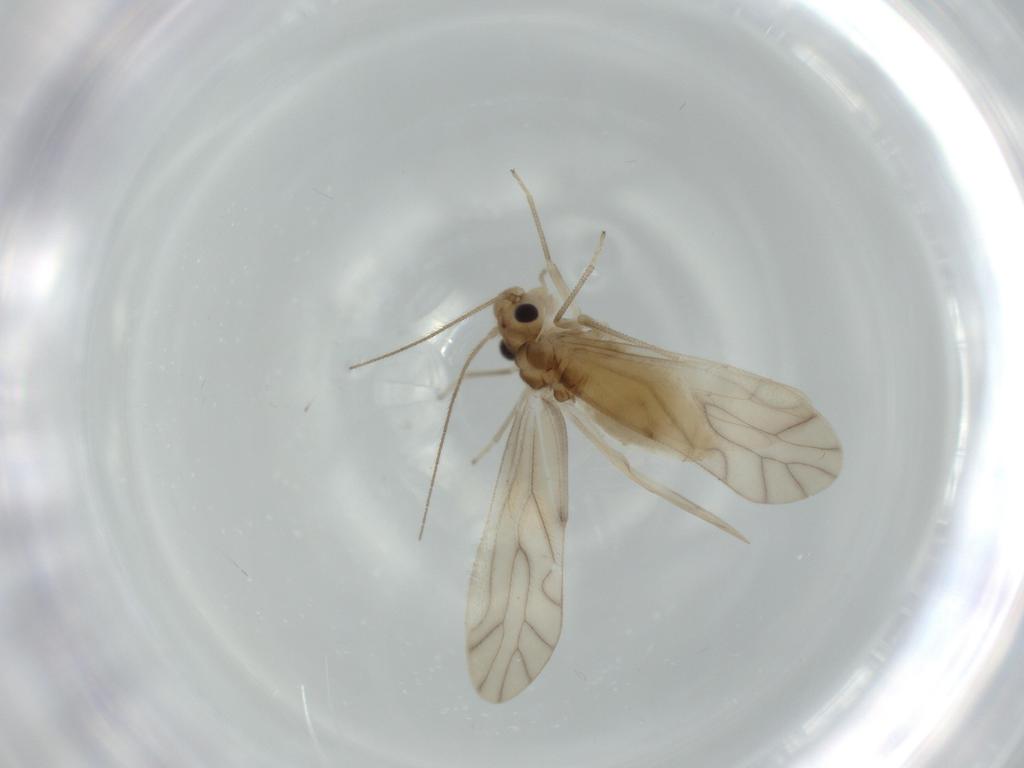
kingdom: Animalia
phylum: Arthropoda
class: Insecta
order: Psocodea
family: Caeciliusidae
